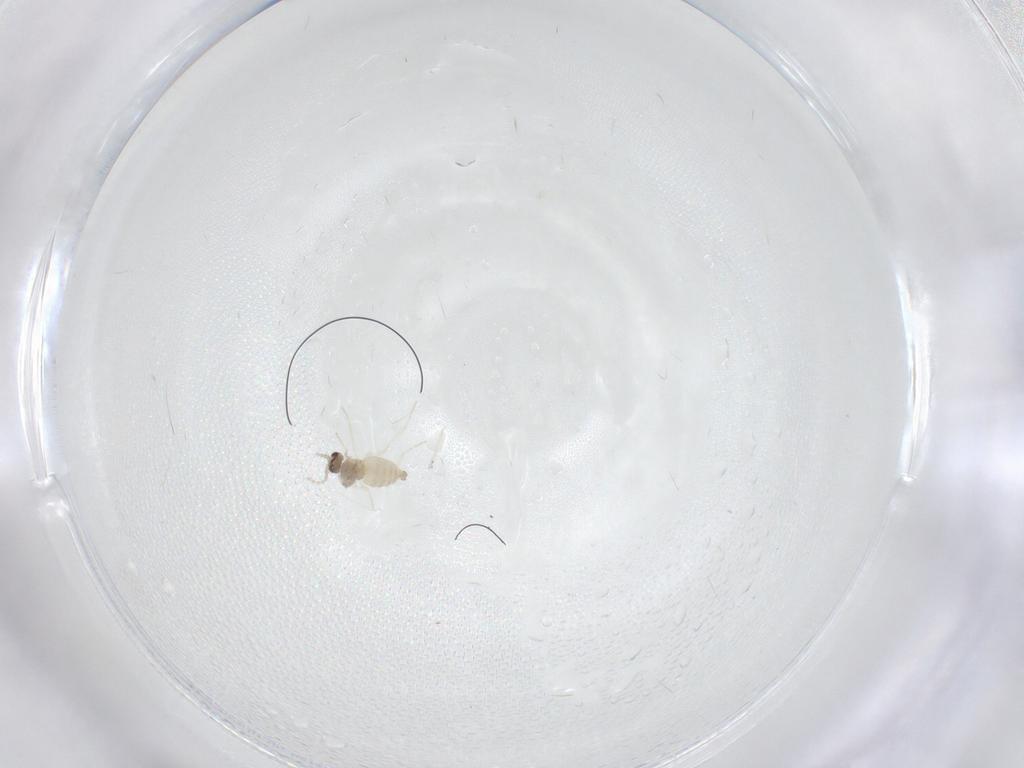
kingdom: Animalia
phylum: Arthropoda
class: Insecta
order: Diptera
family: Cecidomyiidae
